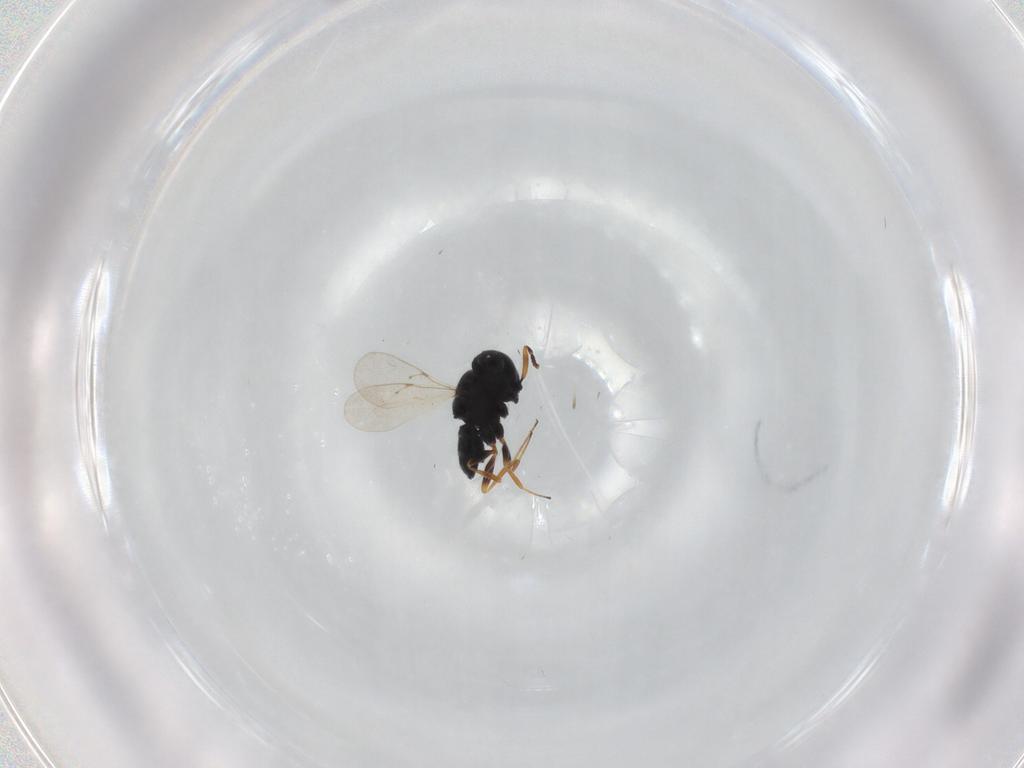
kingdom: Animalia
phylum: Arthropoda
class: Insecta
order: Hymenoptera
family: Scelionidae
